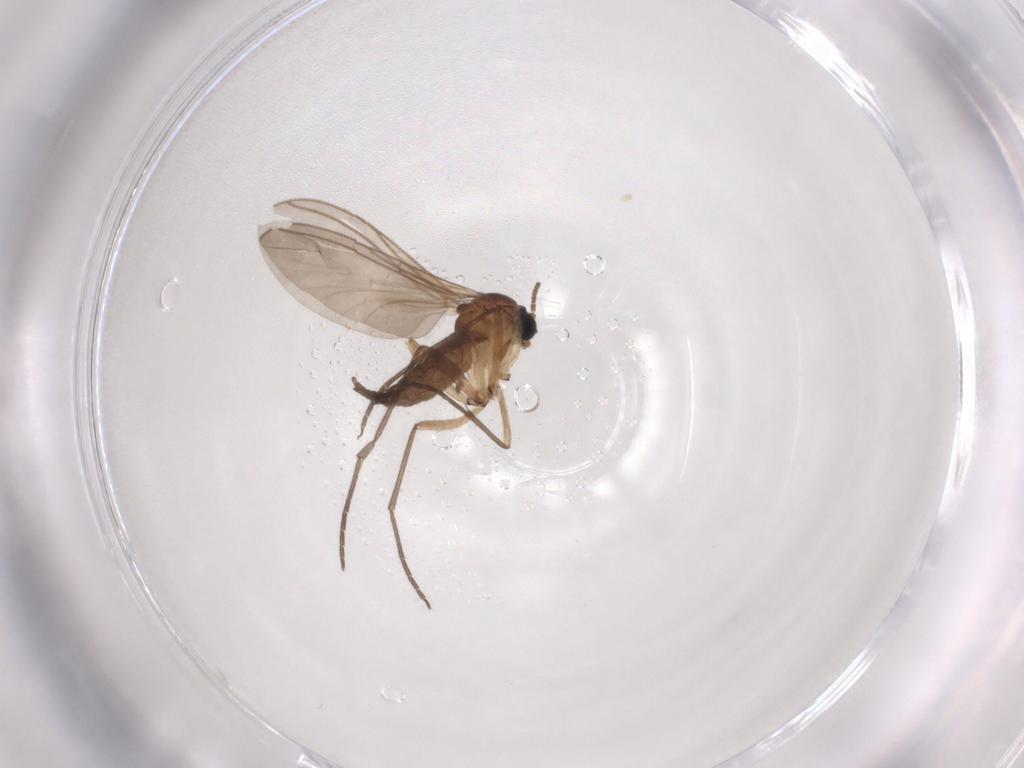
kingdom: Animalia
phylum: Arthropoda
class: Insecta
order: Diptera
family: Sciaridae
